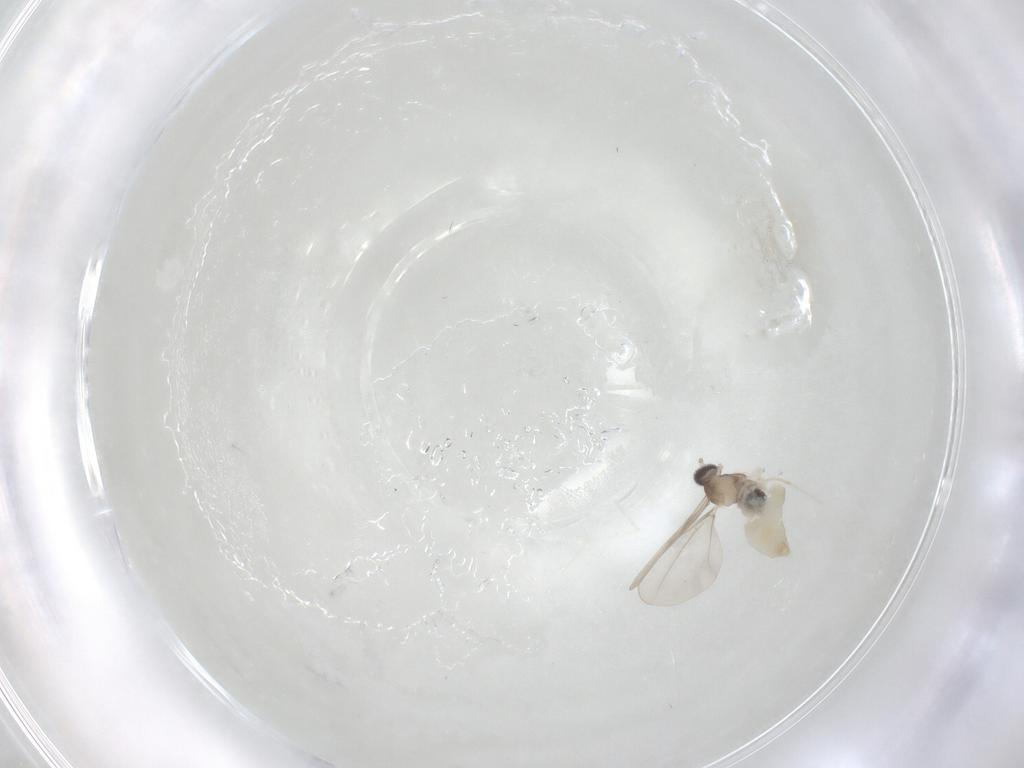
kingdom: Animalia
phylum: Arthropoda
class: Insecta
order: Diptera
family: Cecidomyiidae
